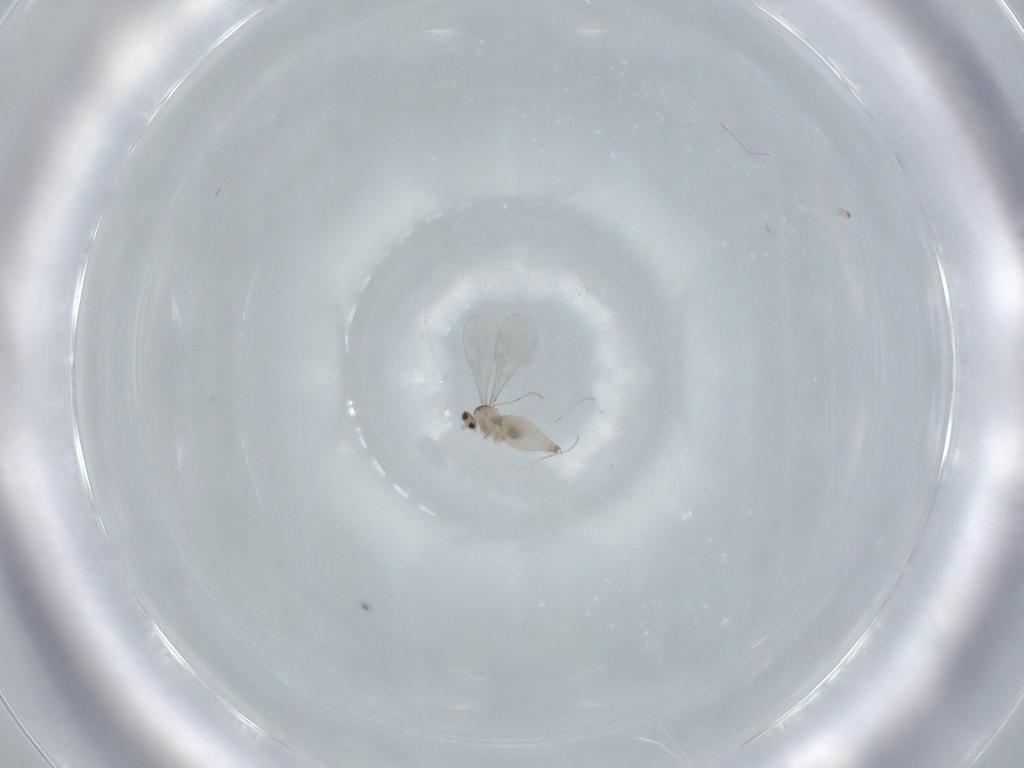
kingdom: Animalia
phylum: Arthropoda
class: Insecta
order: Diptera
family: Cecidomyiidae
